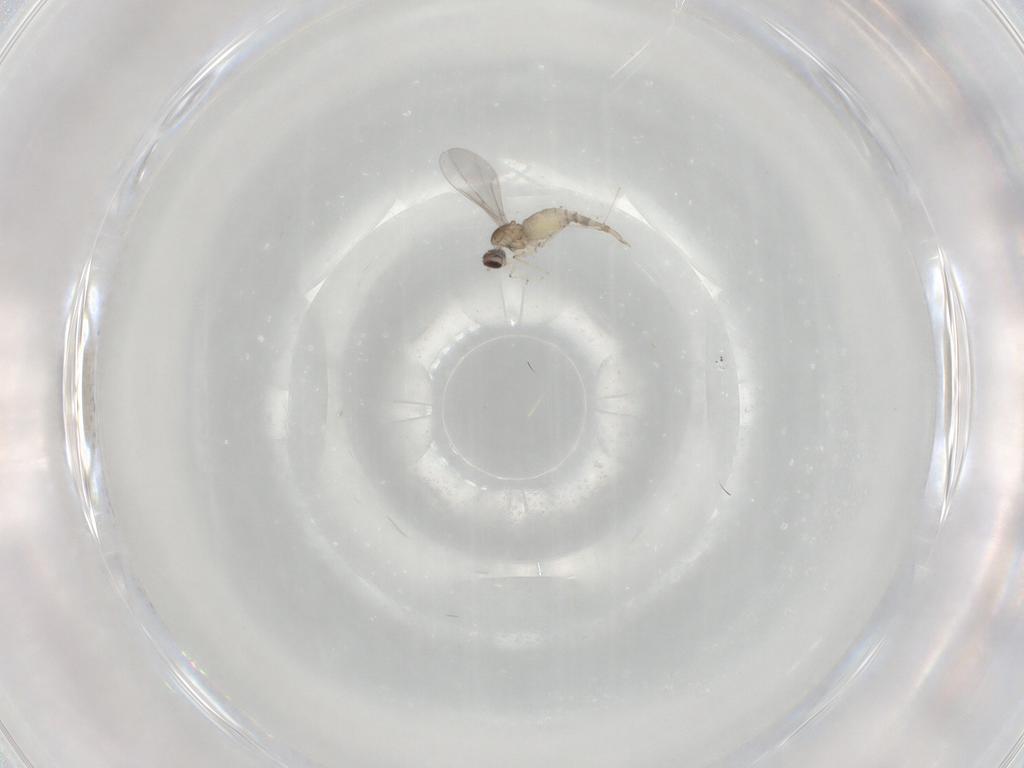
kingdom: Animalia
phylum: Arthropoda
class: Insecta
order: Diptera
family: Cecidomyiidae
